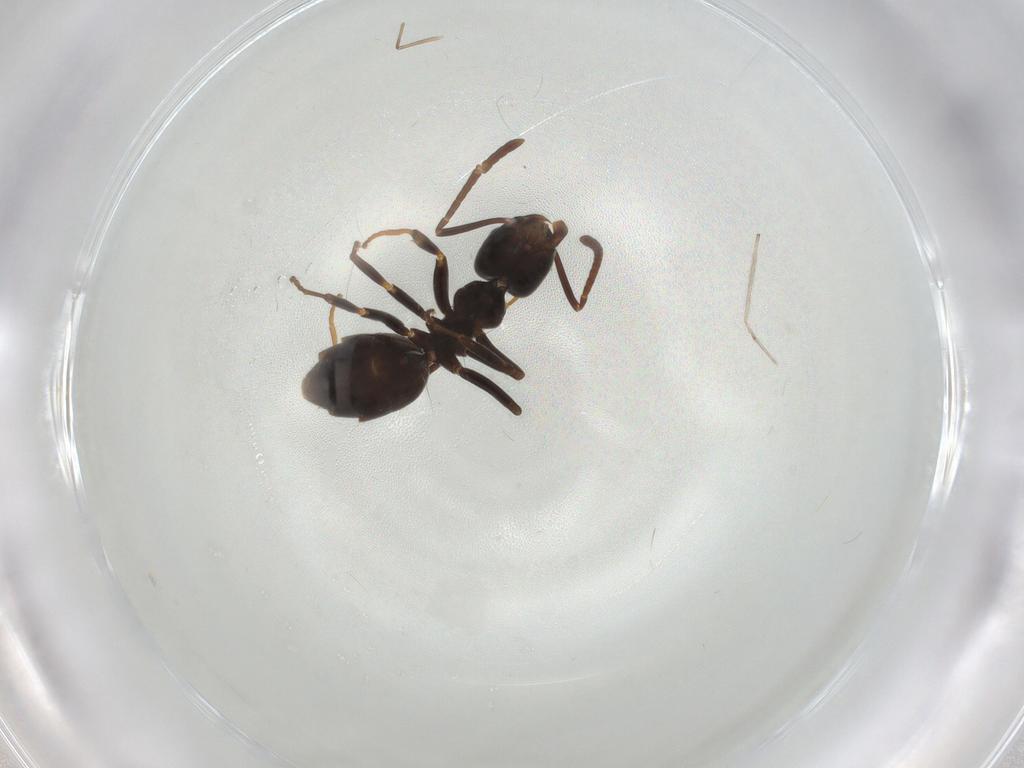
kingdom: Animalia
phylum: Arthropoda
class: Insecta
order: Hymenoptera
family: Formicidae
